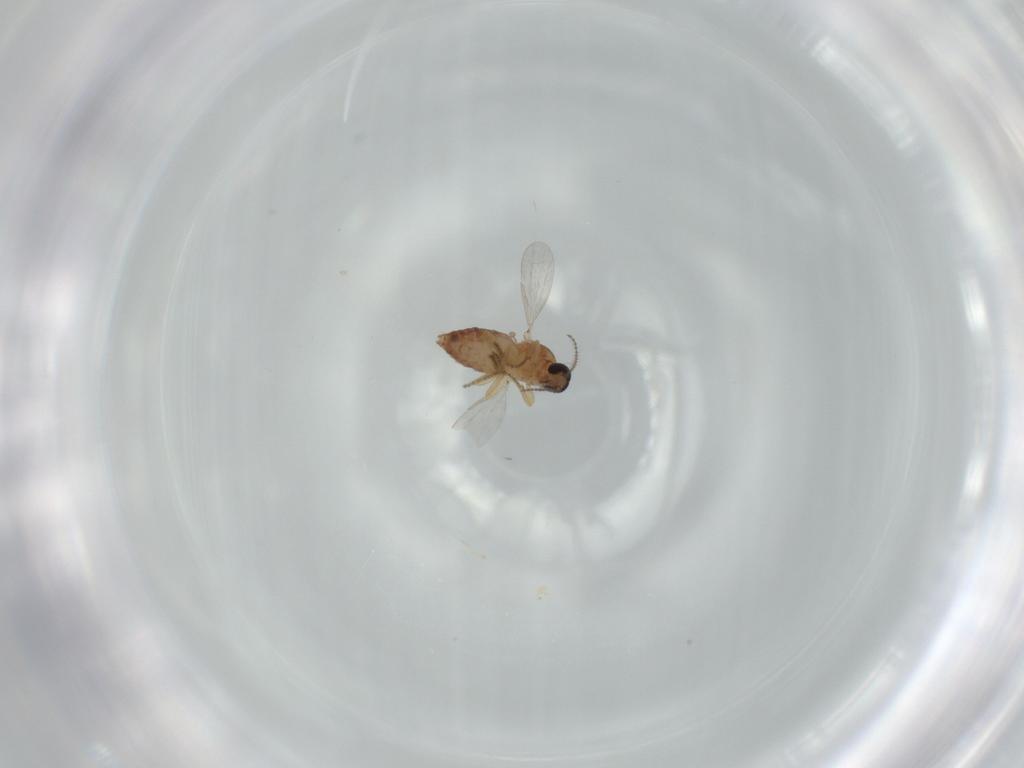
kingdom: Animalia
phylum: Arthropoda
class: Insecta
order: Diptera
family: Ceratopogonidae
